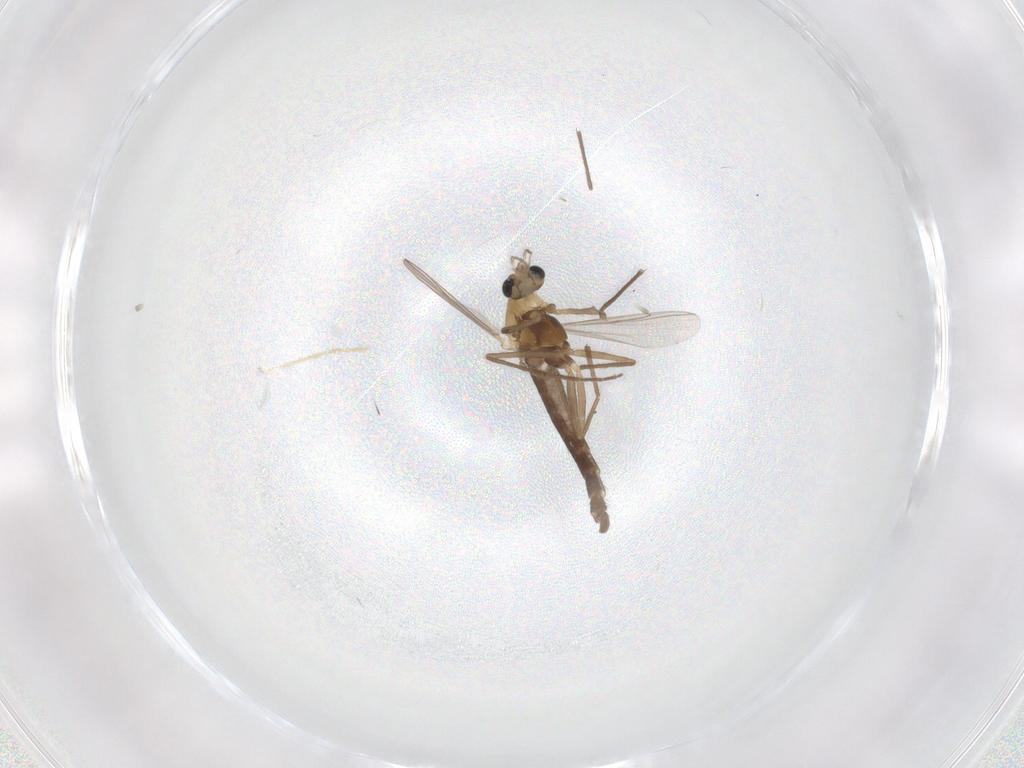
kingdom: Animalia
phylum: Arthropoda
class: Insecta
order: Diptera
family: Chironomidae
